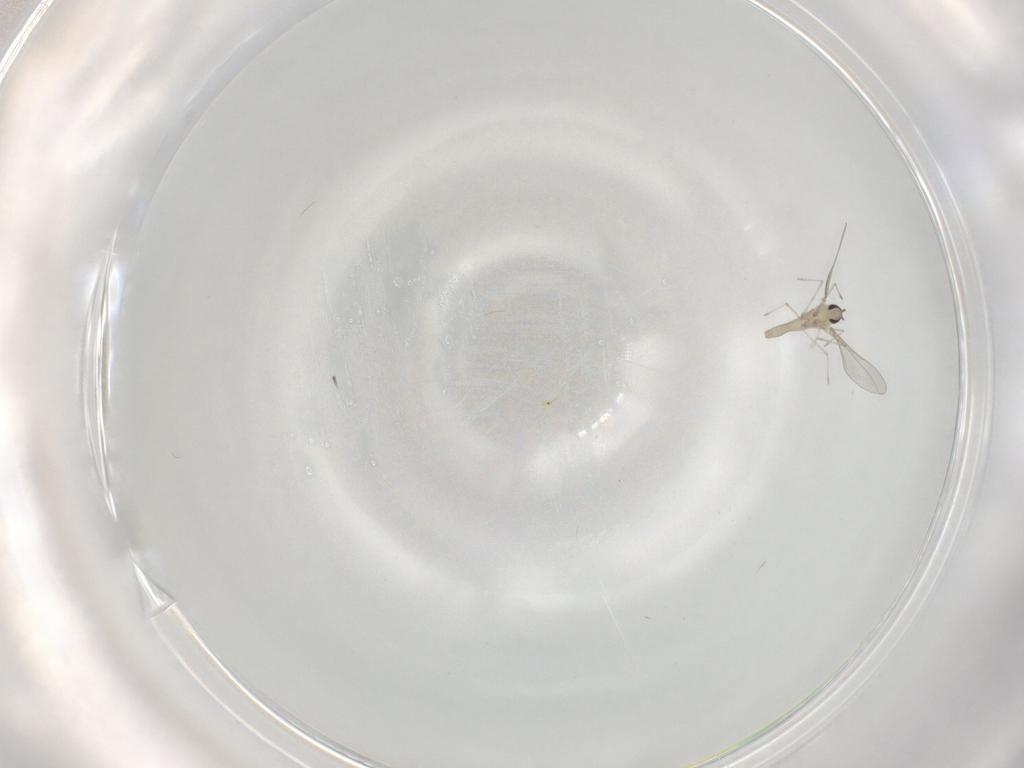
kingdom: Animalia
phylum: Arthropoda
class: Insecta
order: Diptera
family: Cecidomyiidae
